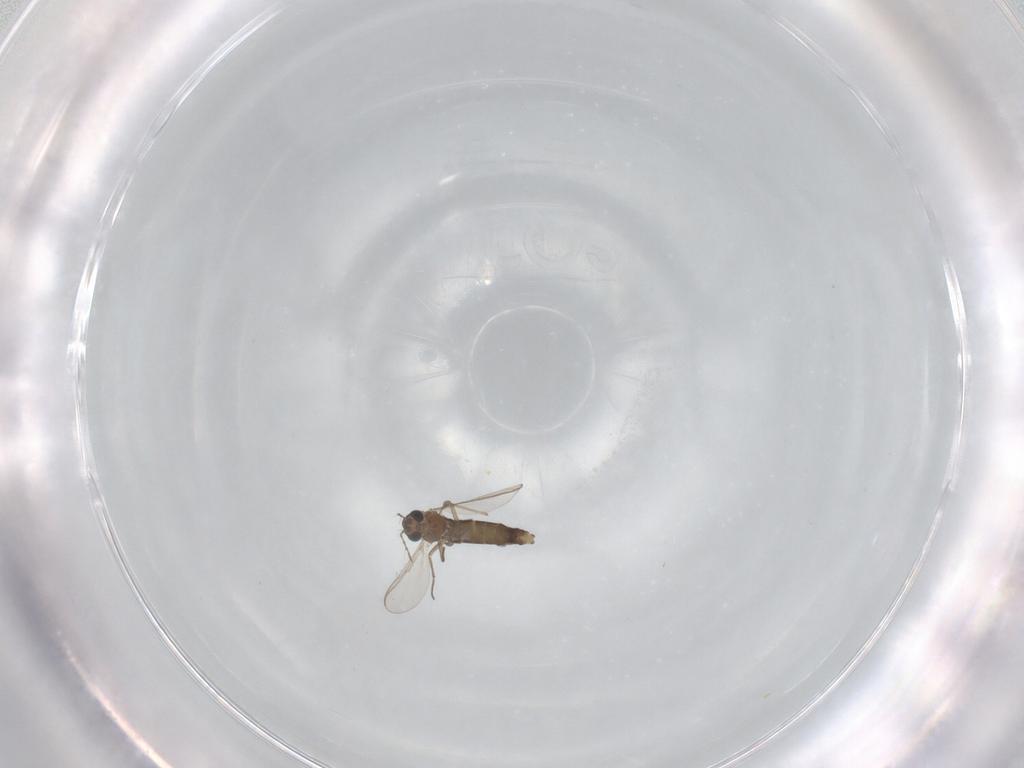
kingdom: Animalia
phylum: Arthropoda
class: Insecta
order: Diptera
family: Chironomidae
